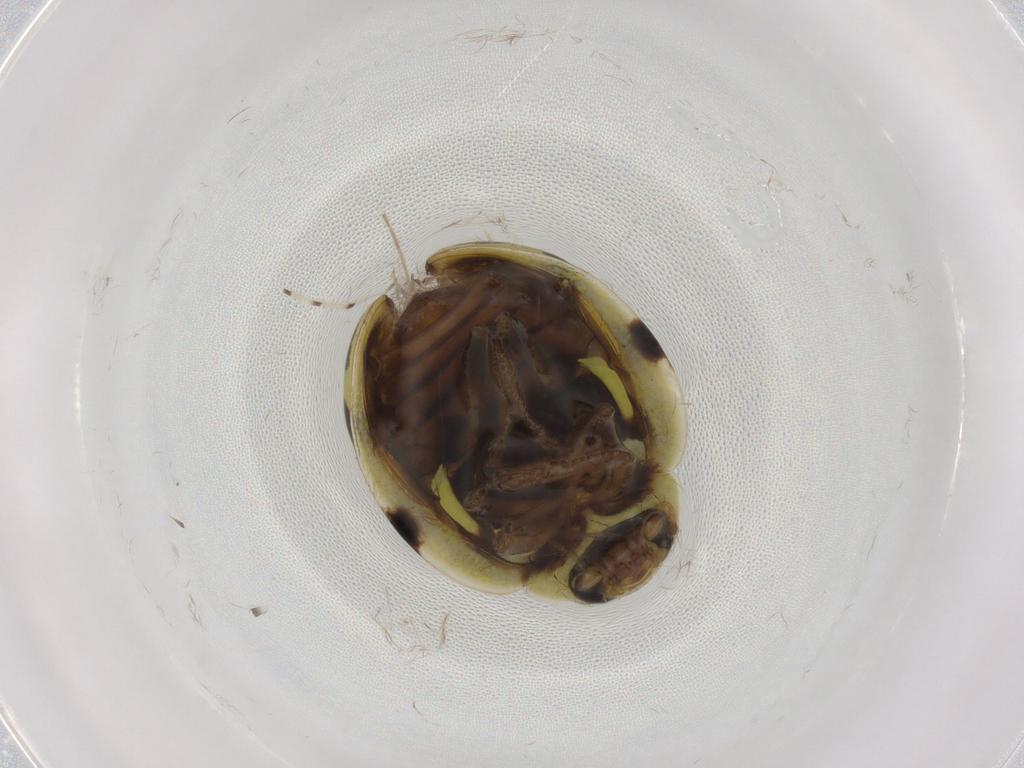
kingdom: Animalia
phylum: Arthropoda
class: Insecta
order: Coleoptera
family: Coccinellidae
